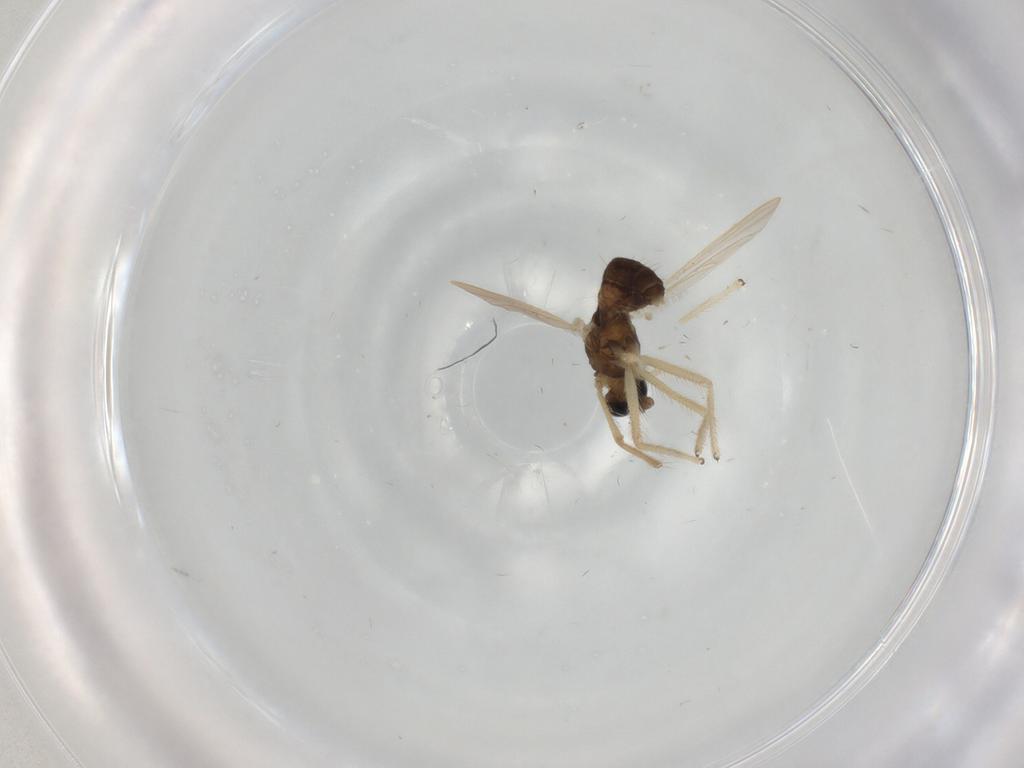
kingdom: Animalia
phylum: Arthropoda
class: Insecta
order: Diptera
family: Chironomidae
